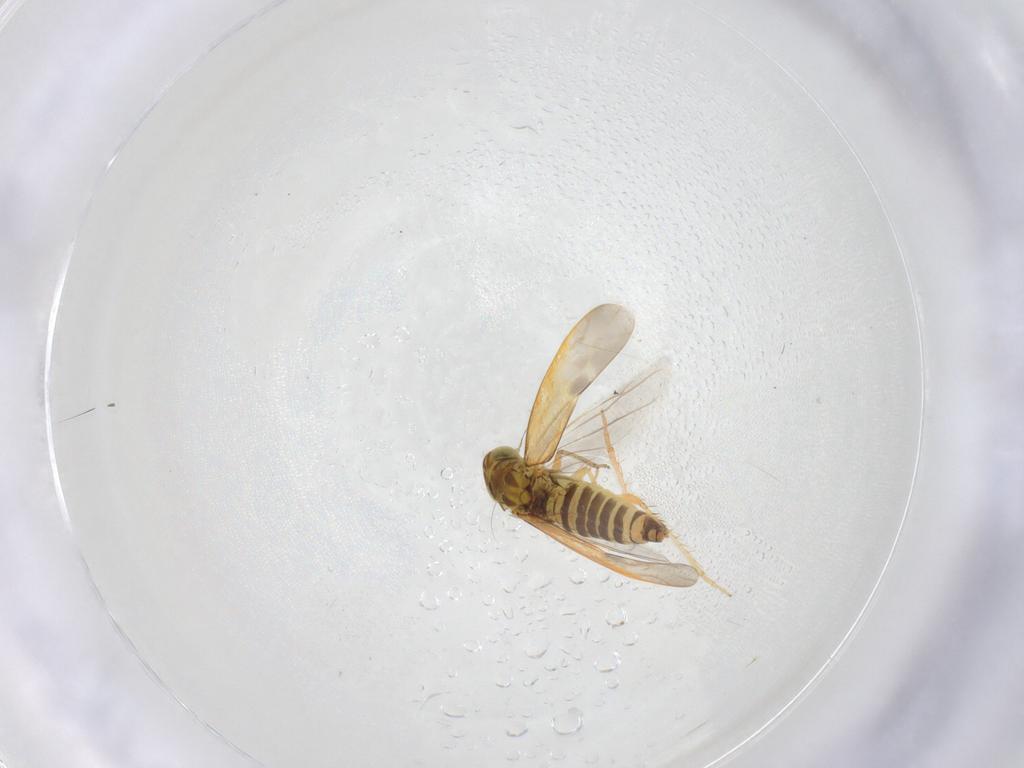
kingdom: Animalia
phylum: Arthropoda
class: Insecta
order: Hemiptera
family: Cicadellidae
